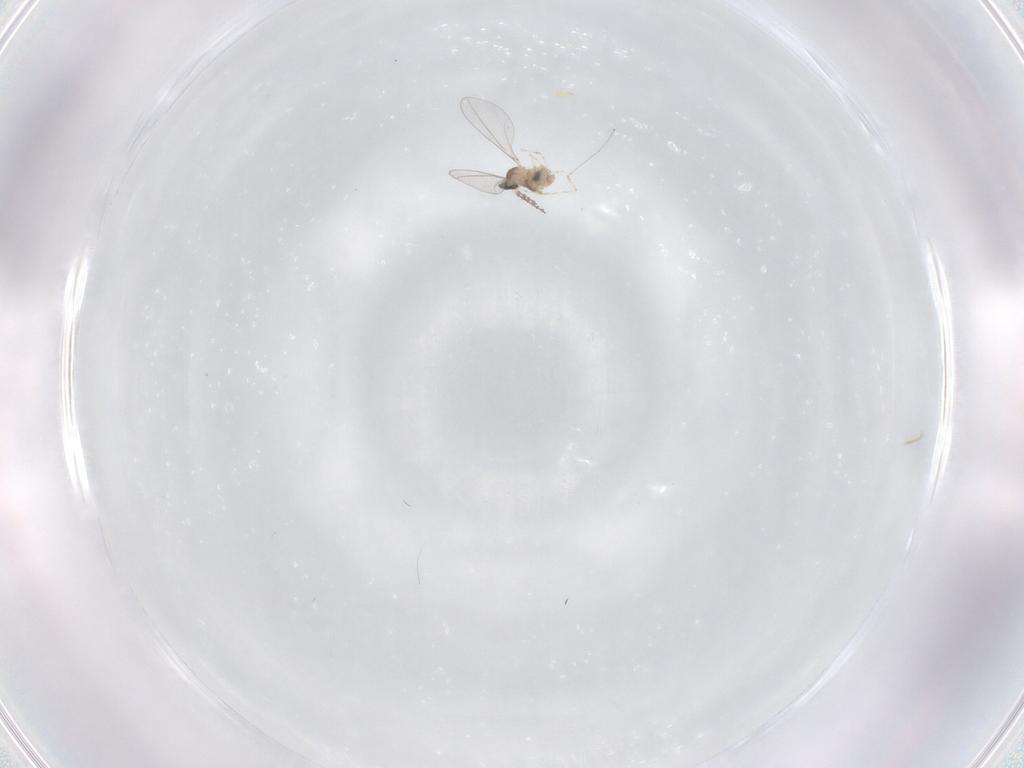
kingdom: Animalia
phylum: Arthropoda
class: Insecta
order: Diptera
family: Cecidomyiidae
